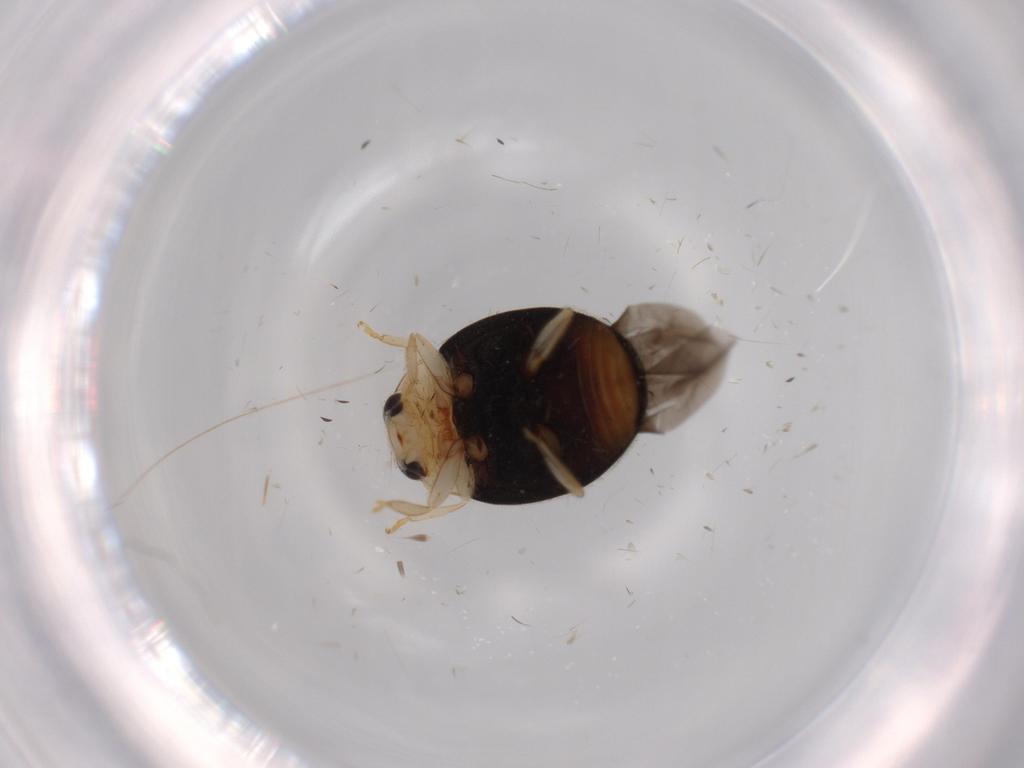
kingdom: Animalia
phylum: Arthropoda
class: Insecta
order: Coleoptera
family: Coccinellidae
